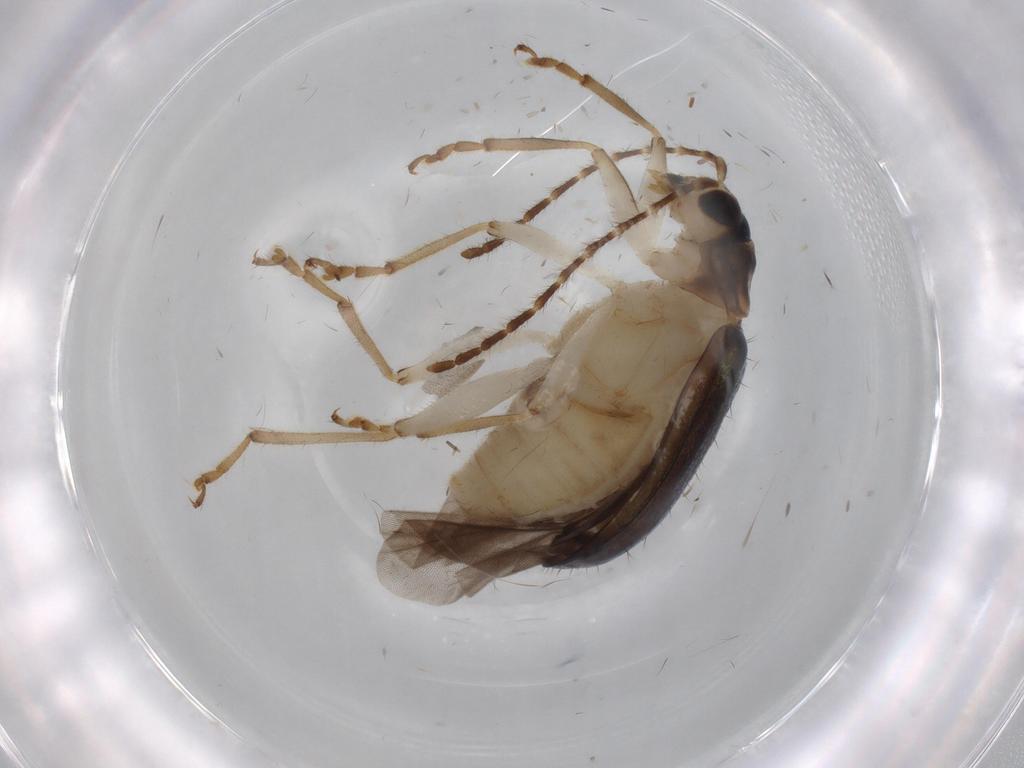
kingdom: Animalia
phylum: Arthropoda
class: Insecta
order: Coleoptera
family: Chrysomelidae
